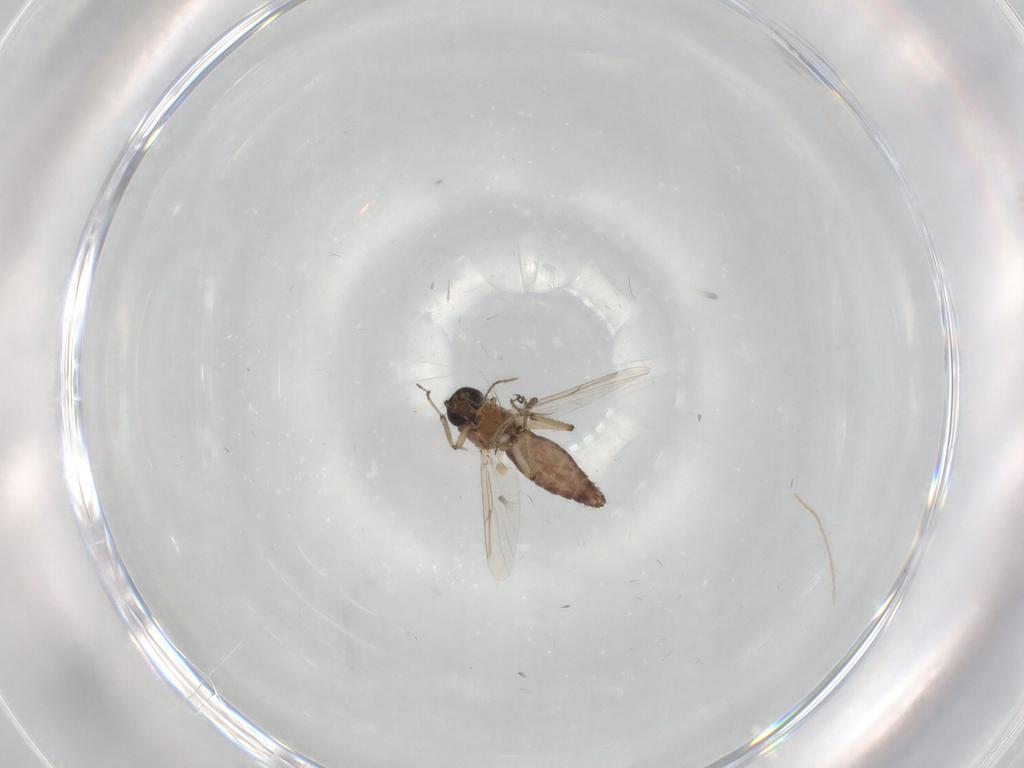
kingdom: Animalia
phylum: Arthropoda
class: Insecta
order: Diptera
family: Ceratopogonidae
